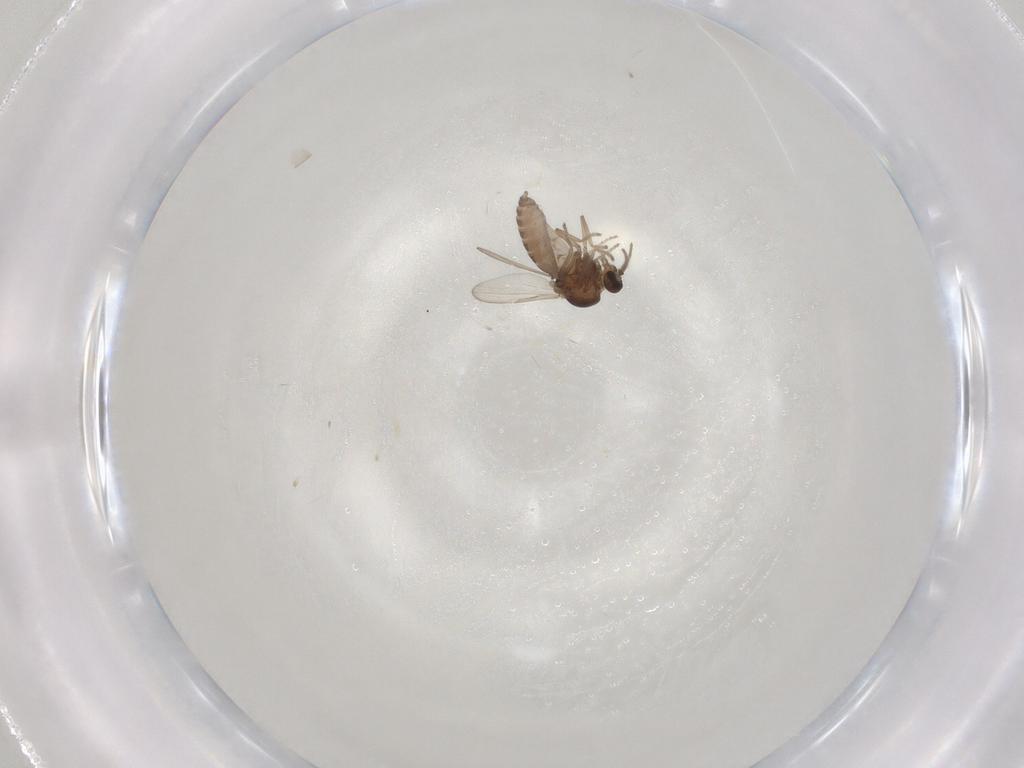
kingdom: Animalia
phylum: Arthropoda
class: Insecta
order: Diptera
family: Ceratopogonidae
